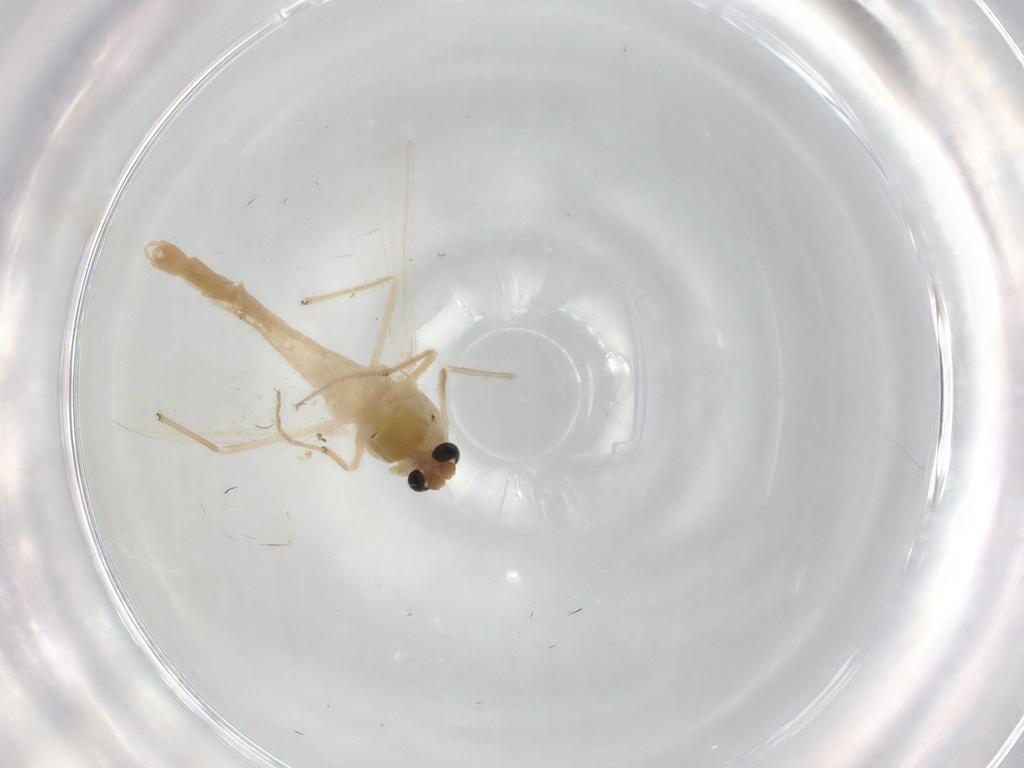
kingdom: Animalia
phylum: Arthropoda
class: Insecta
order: Diptera
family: Chironomidae
